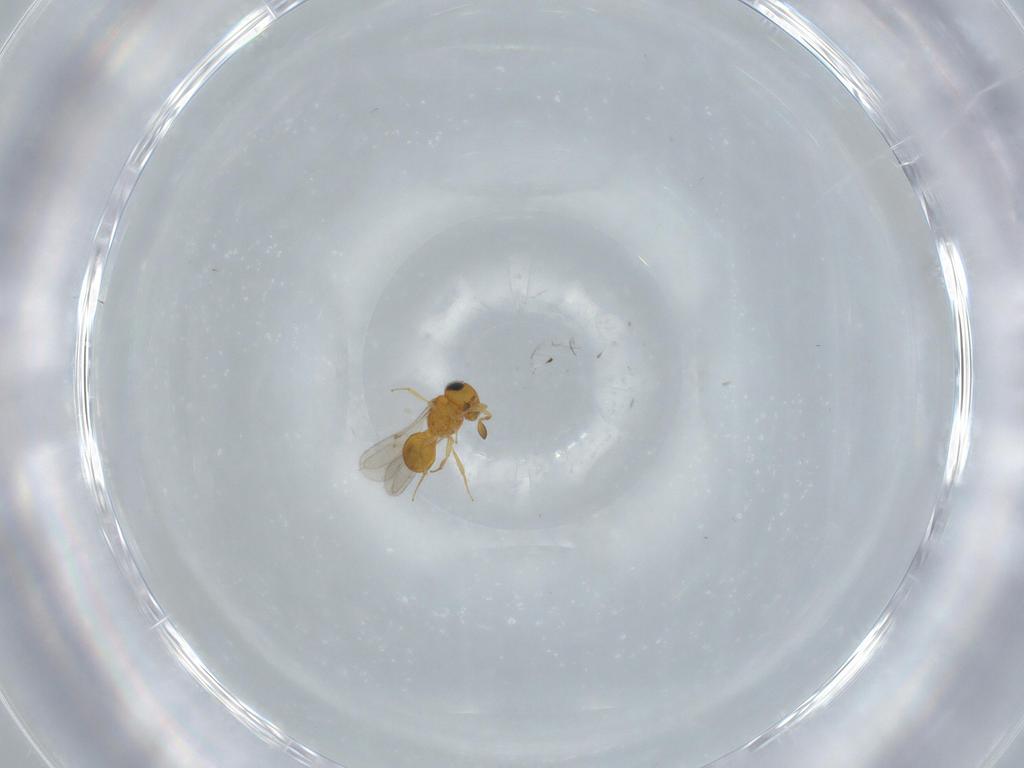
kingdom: Animalia
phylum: Arthropoda
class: Insecta
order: Hymenoptera
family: Scelionidae
